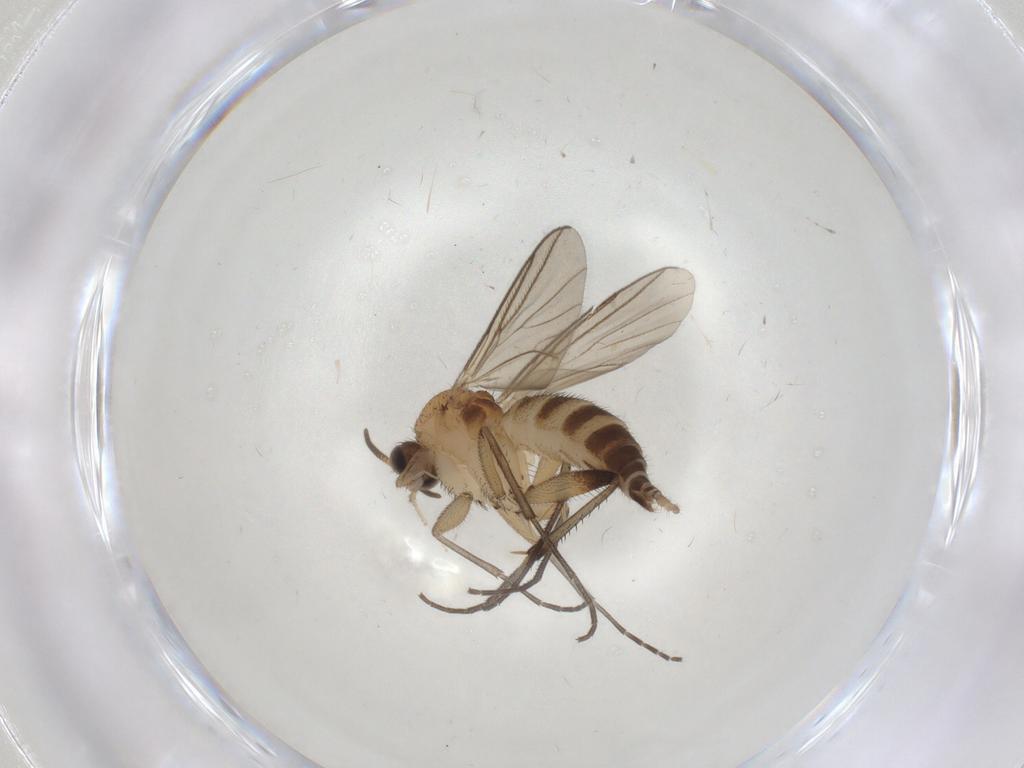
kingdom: Animalia
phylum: Arthropoda
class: Insecta
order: Diptera
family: Bibionidae
